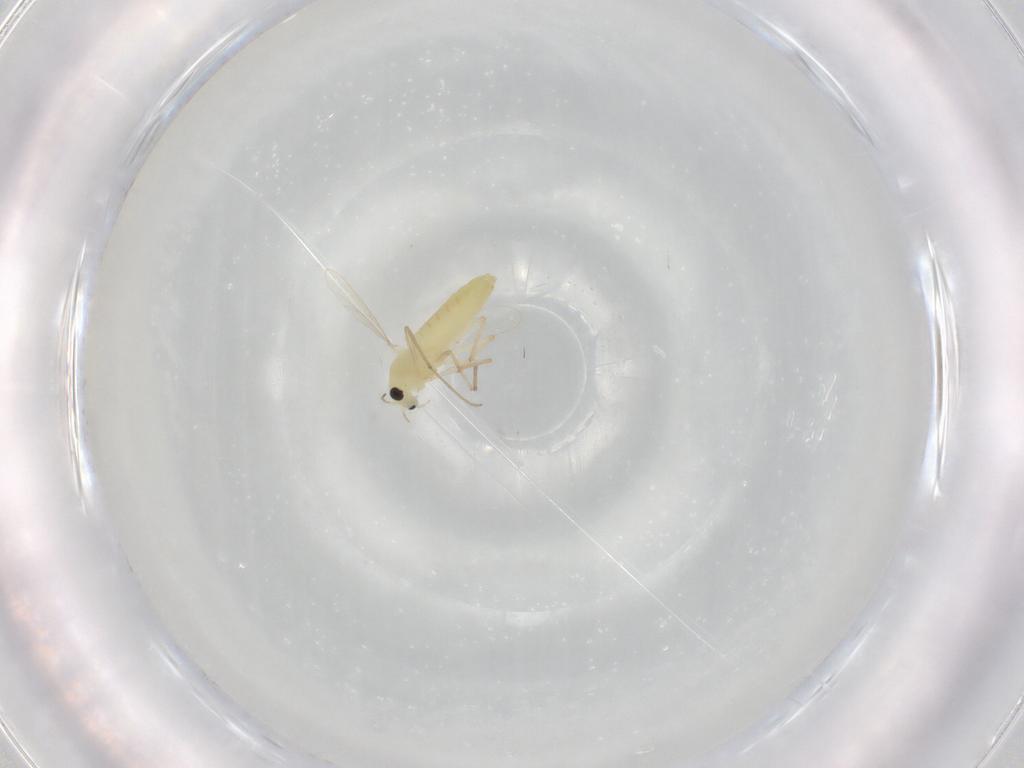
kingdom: Animalia
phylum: Arthropoda
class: Insecta
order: Diptera
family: Chironomidae
